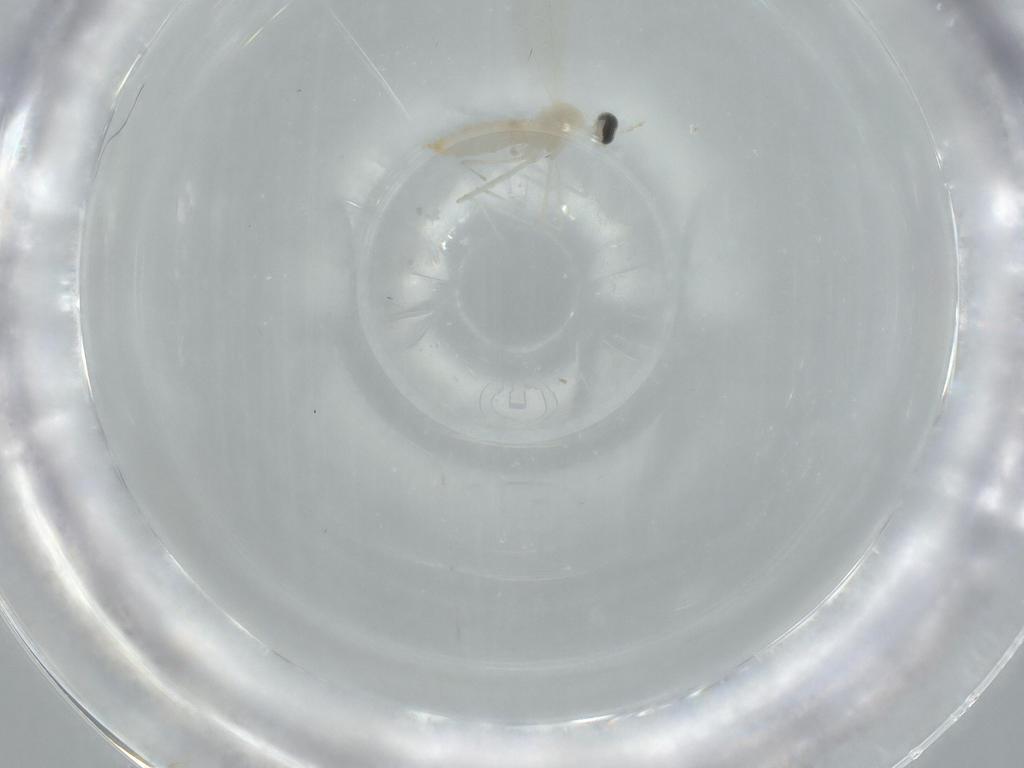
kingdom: Animalia
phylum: Arthropoda
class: Insecta
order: Diptera
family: Cecidomyiidae
